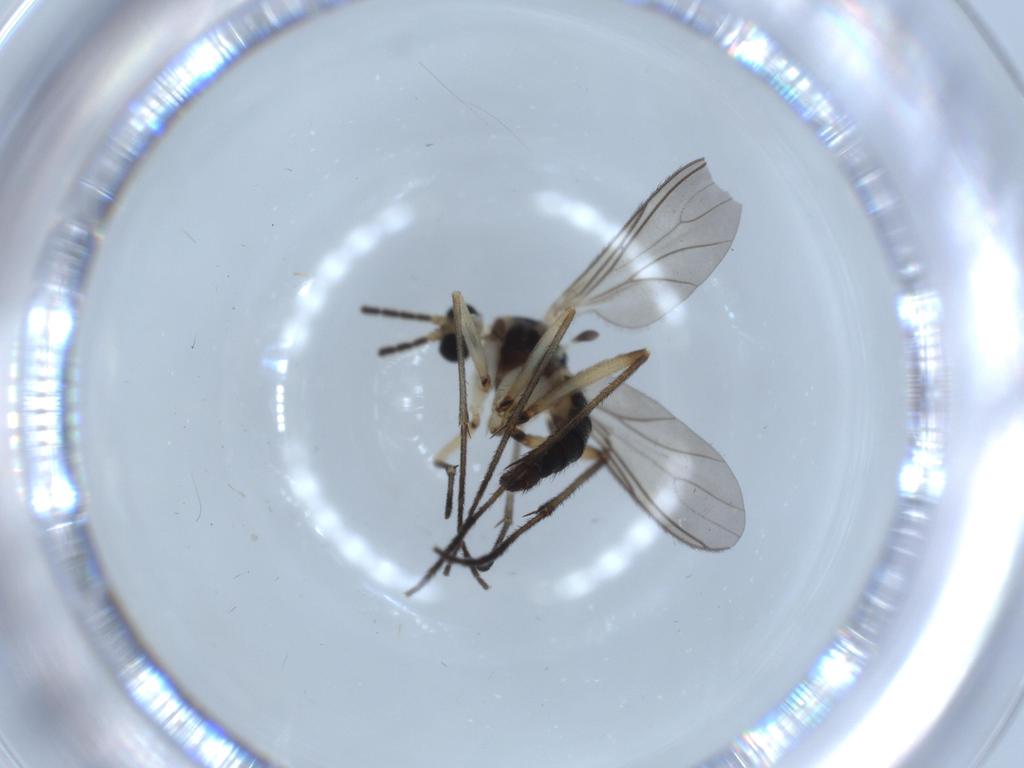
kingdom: Animalia
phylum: Arthropoda
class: Insecta
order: Diptera
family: Sciaridae
